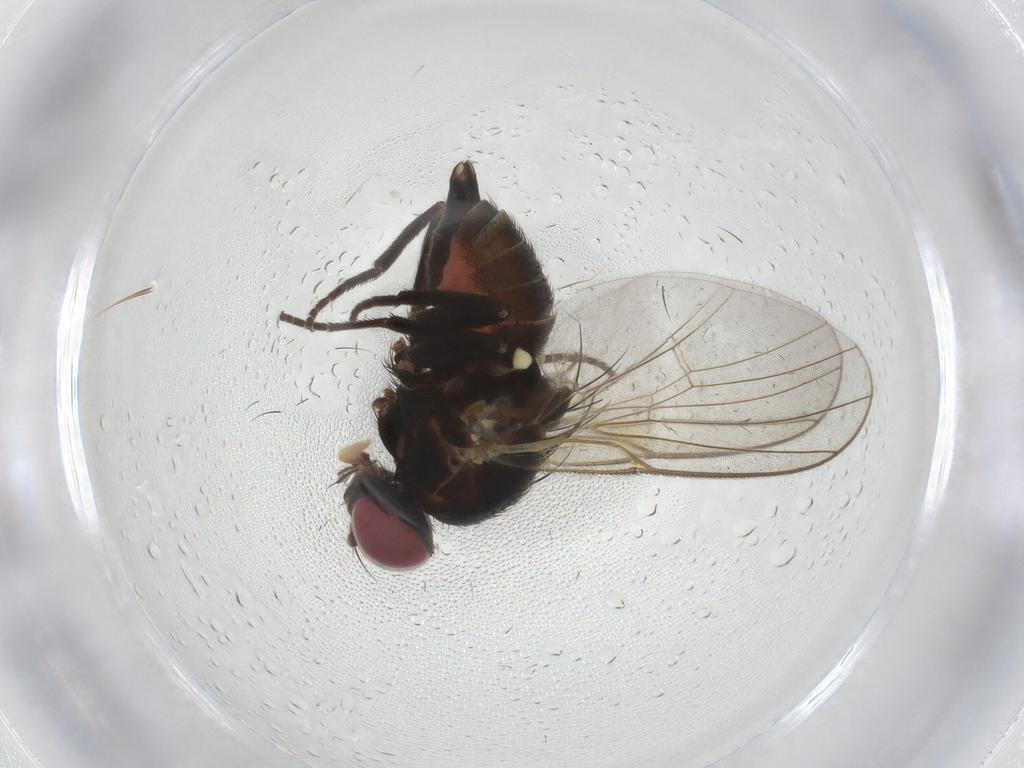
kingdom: Animalia
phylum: Arthropoda
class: Insecta
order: Diptera
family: Agromyzidae
